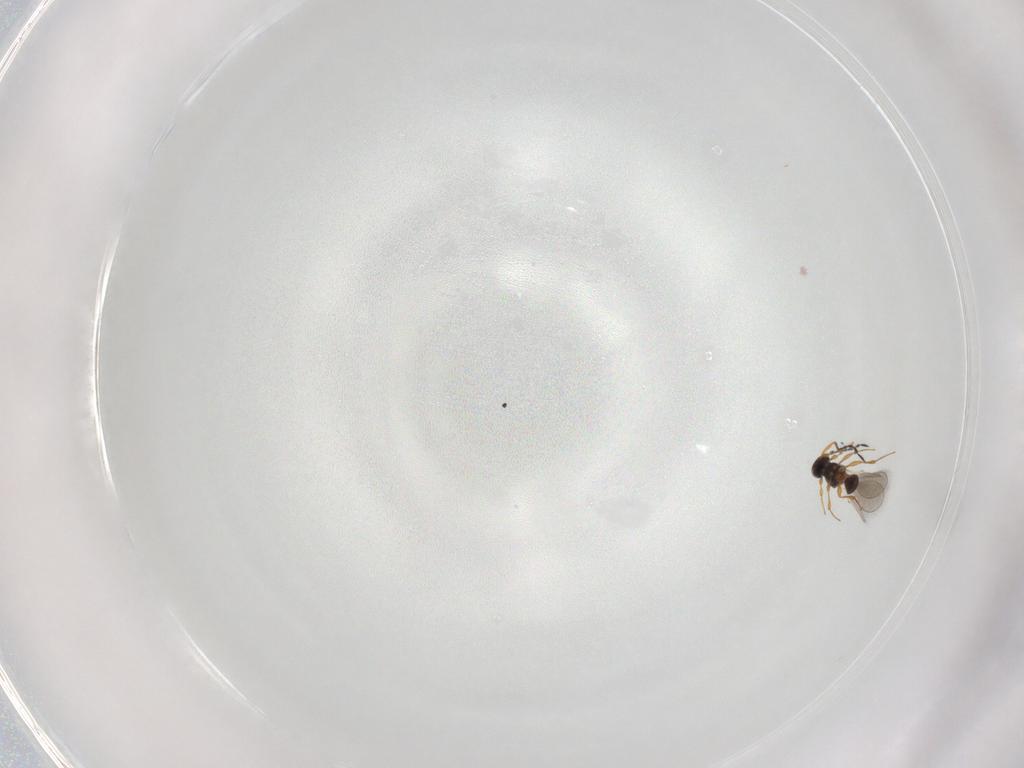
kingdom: Animalia
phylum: Arthropoda
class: Insecta
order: Hymenoptera
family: Platygastridae
